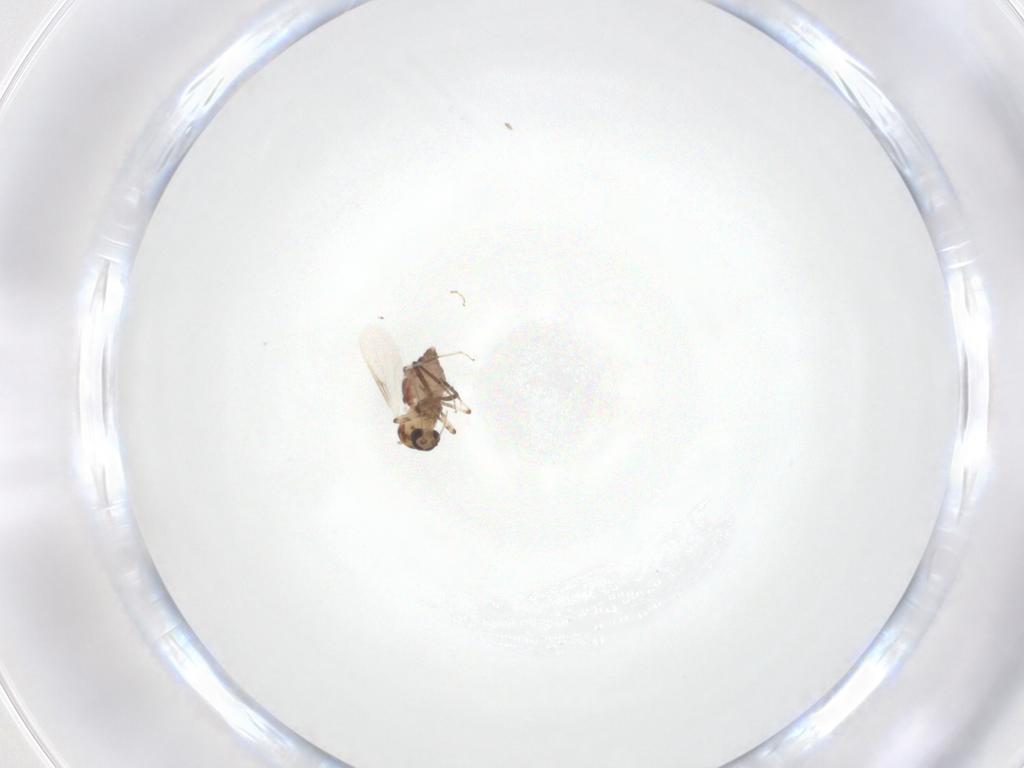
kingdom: Animalia
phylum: Arthropoda
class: Insecta
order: Diptera
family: Ceratopogonidae
